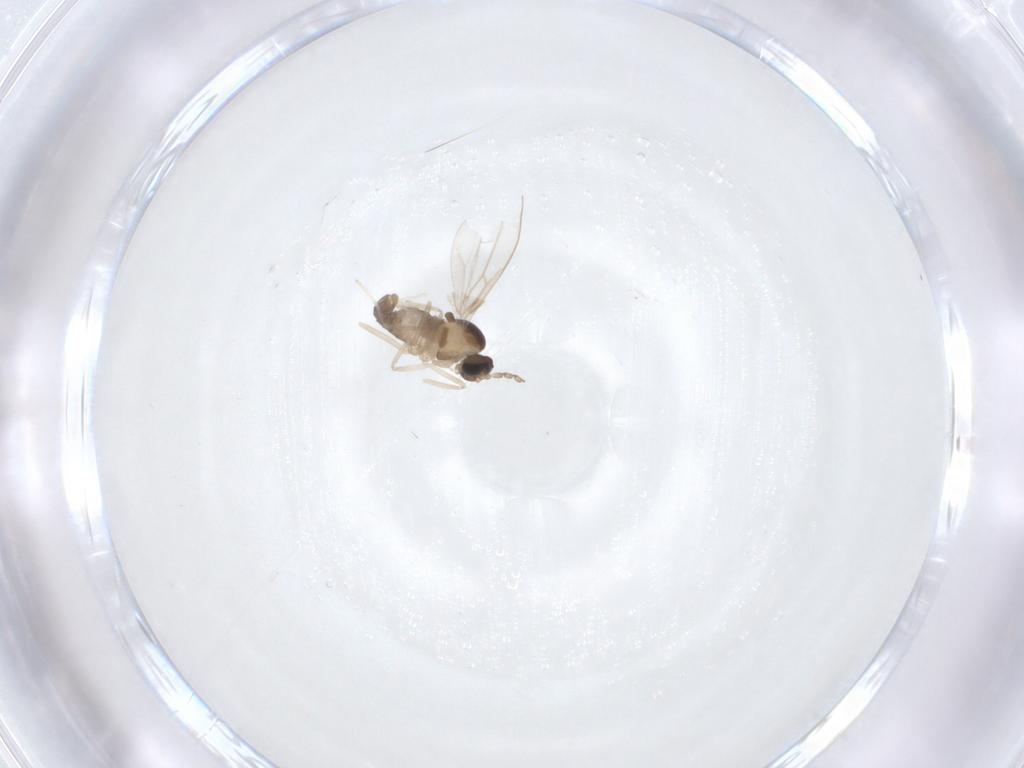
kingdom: Animalia
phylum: Arthropoda
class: Insecta
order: Diptera
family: Cecidomyiidae
